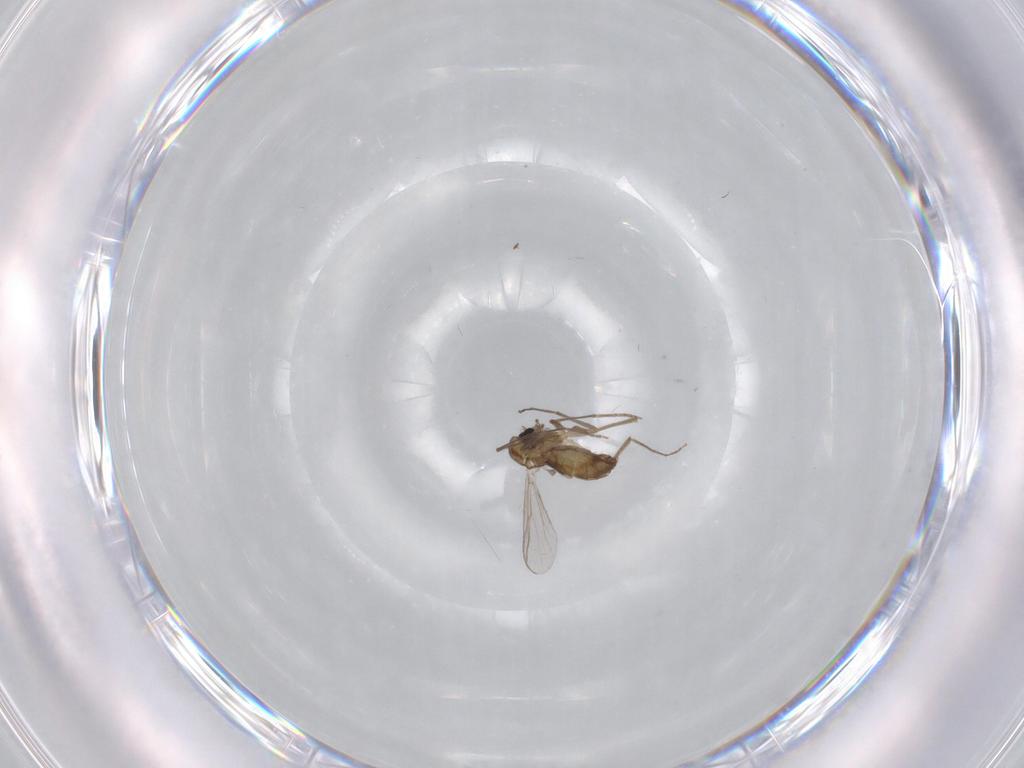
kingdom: Animalia
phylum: Arthropoda
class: Insecta
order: Diptera
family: Chironomidae
